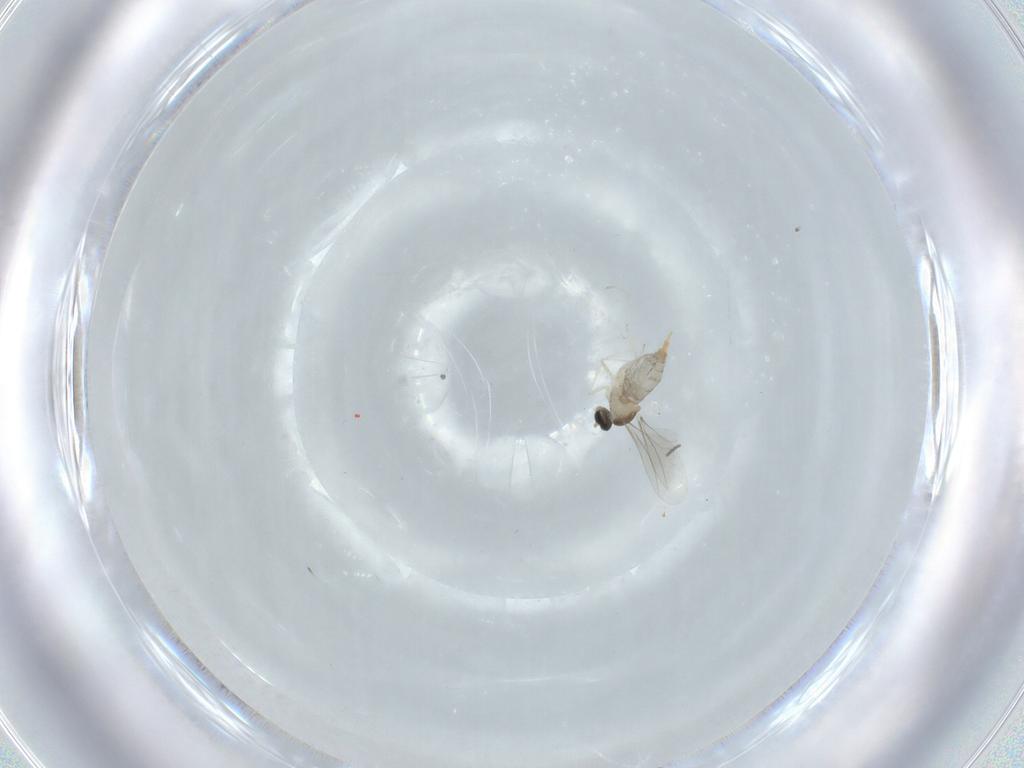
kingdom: Animalia
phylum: Arthropoda
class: Insecta
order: Diptera
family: Cecidomyiidae
